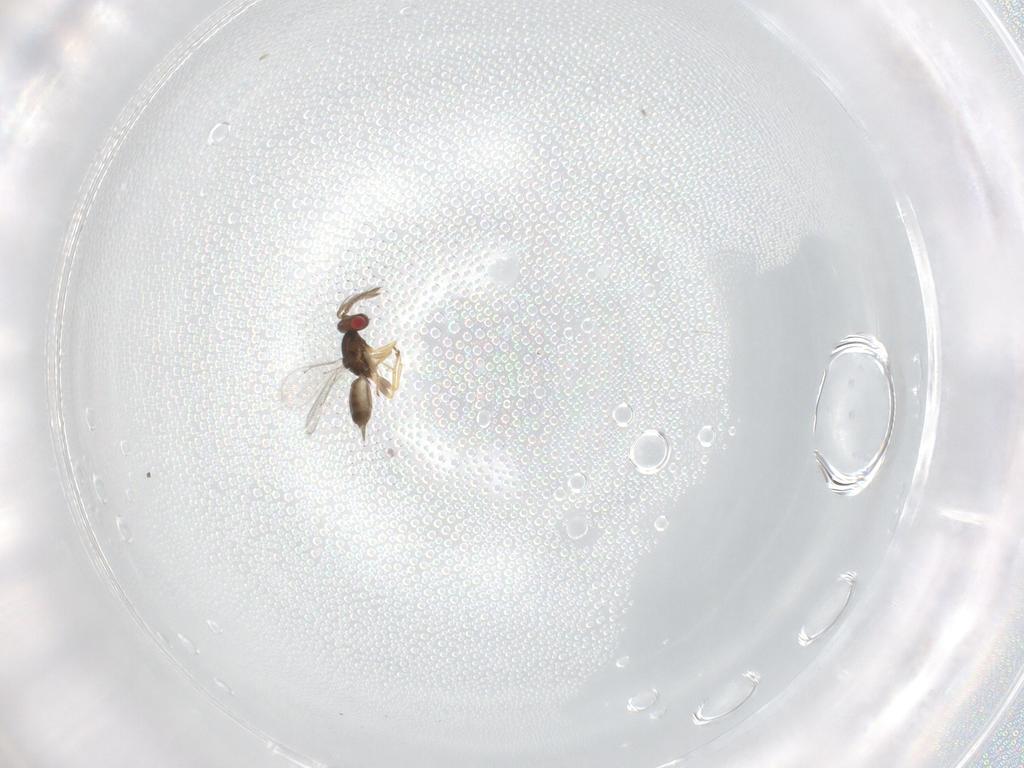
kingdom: Animalia
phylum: Arthropoda
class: Insecta
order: Hymenoptera
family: Eulophidae
